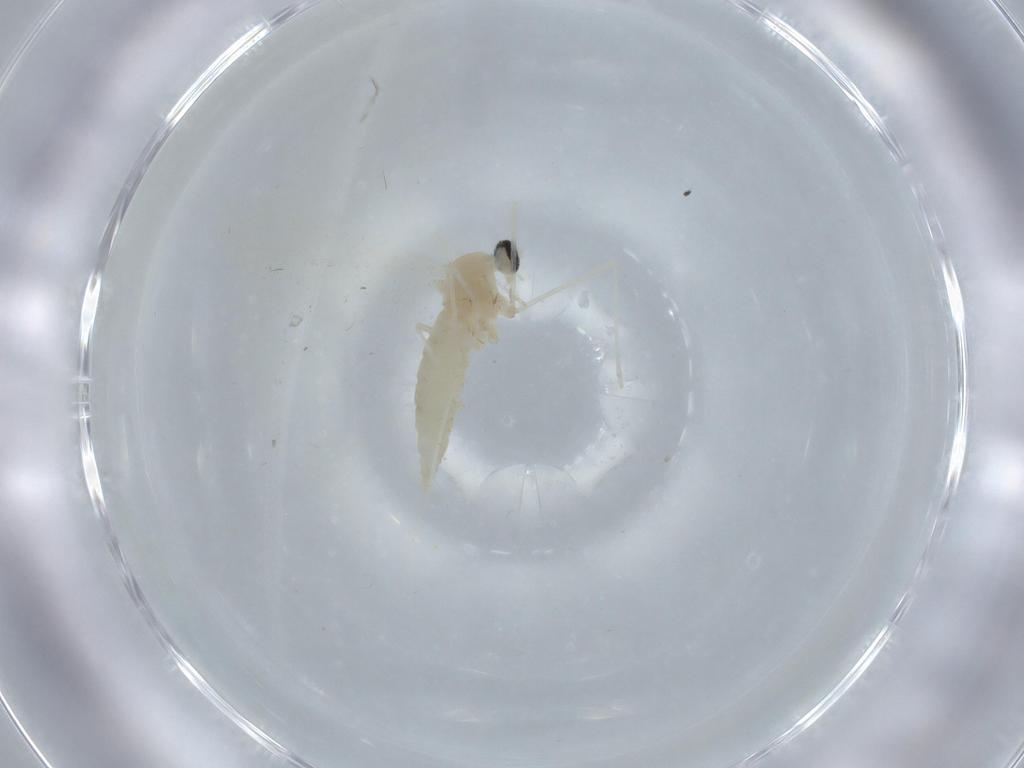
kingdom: Animalia
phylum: Arthropoda
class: Insecta
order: Diptera
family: Cecidomyiidae
